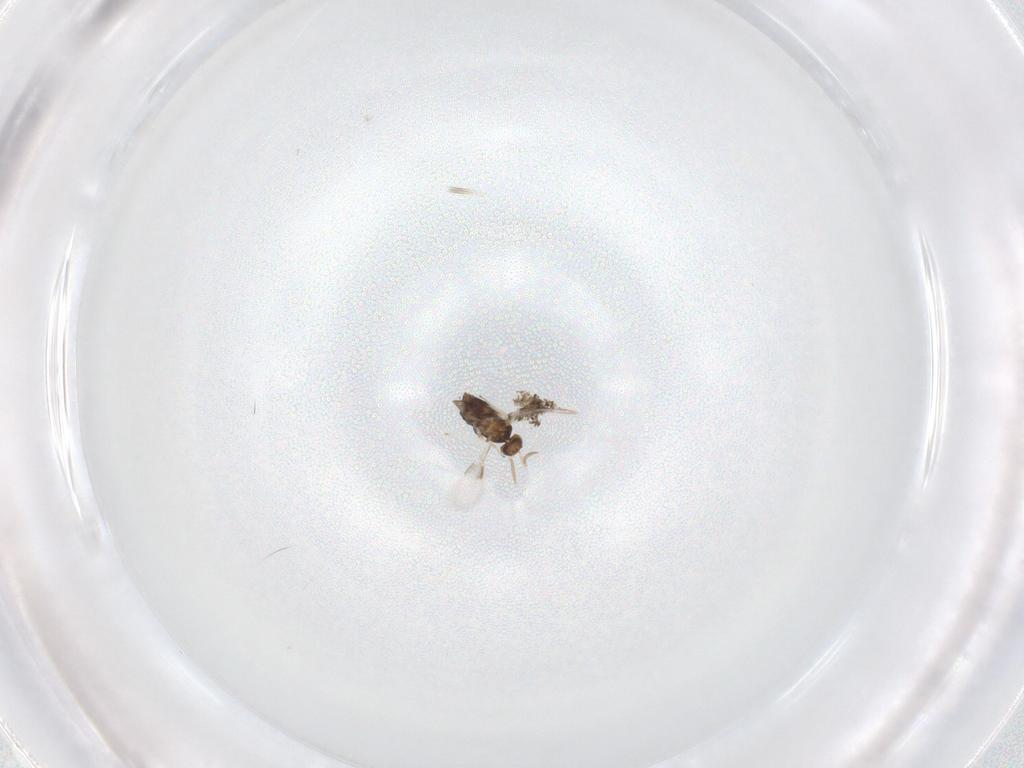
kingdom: Animalia
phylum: Arthropoda
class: Insecta
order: Hymenoptera
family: Aphelinidae
